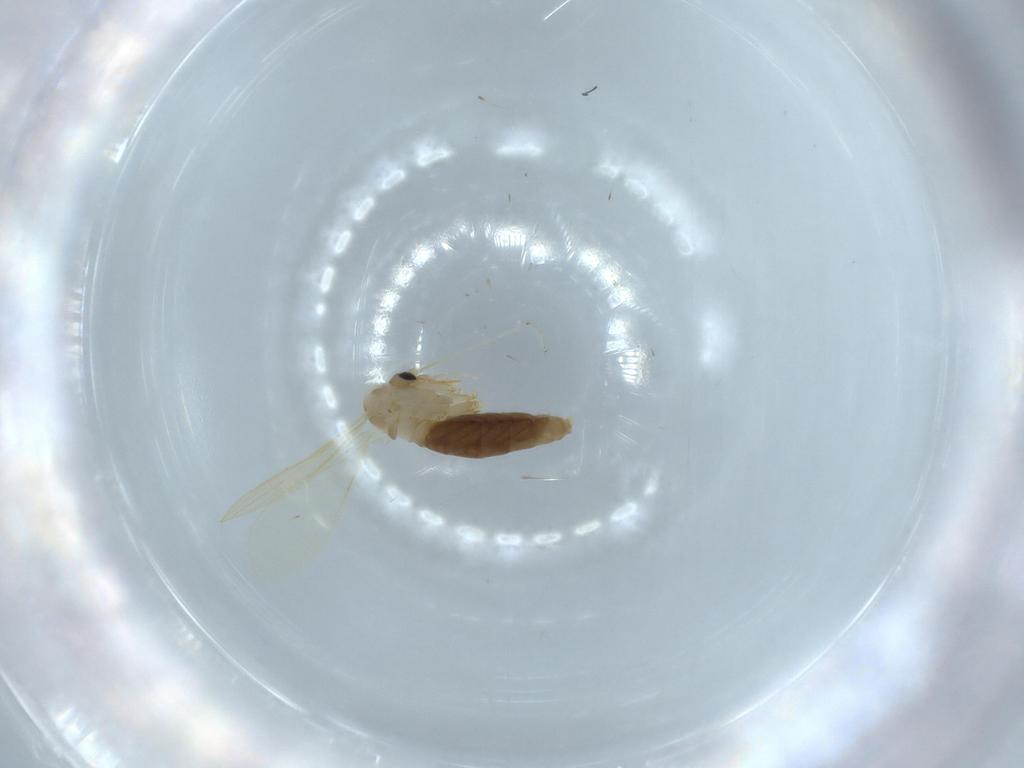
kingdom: Animalia
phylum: Arthropoda
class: Insecta
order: Diptera
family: Psychodidae
